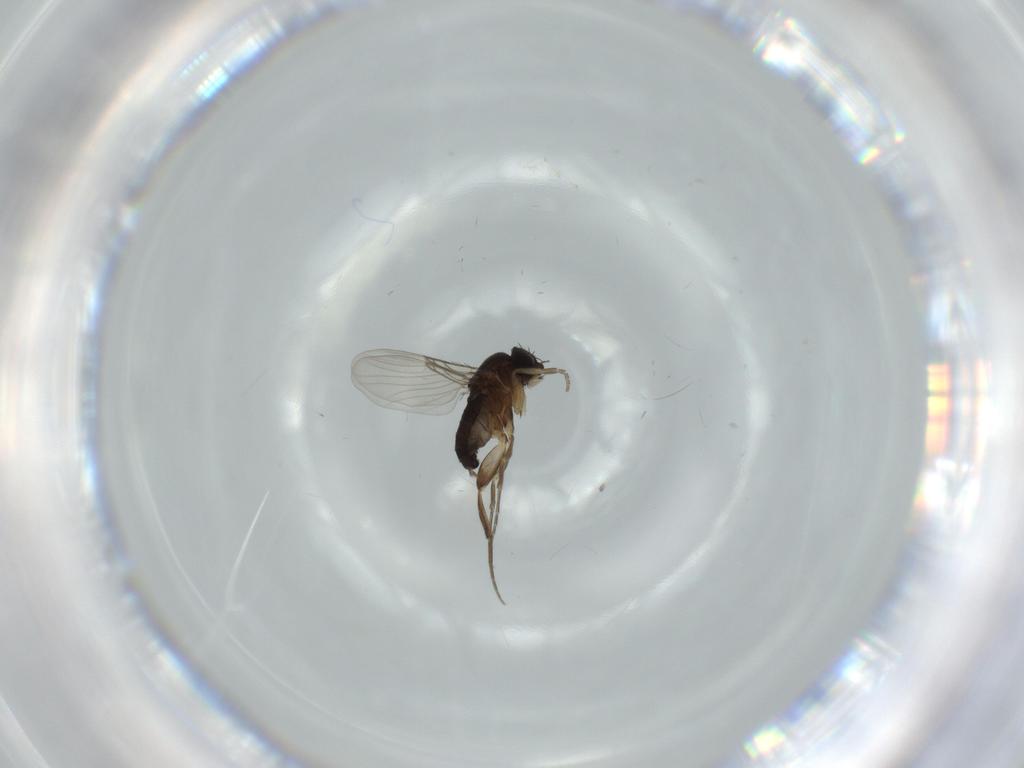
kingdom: Animalia
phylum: Arthropoda
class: Insecta
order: Diptera
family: Phoridae
